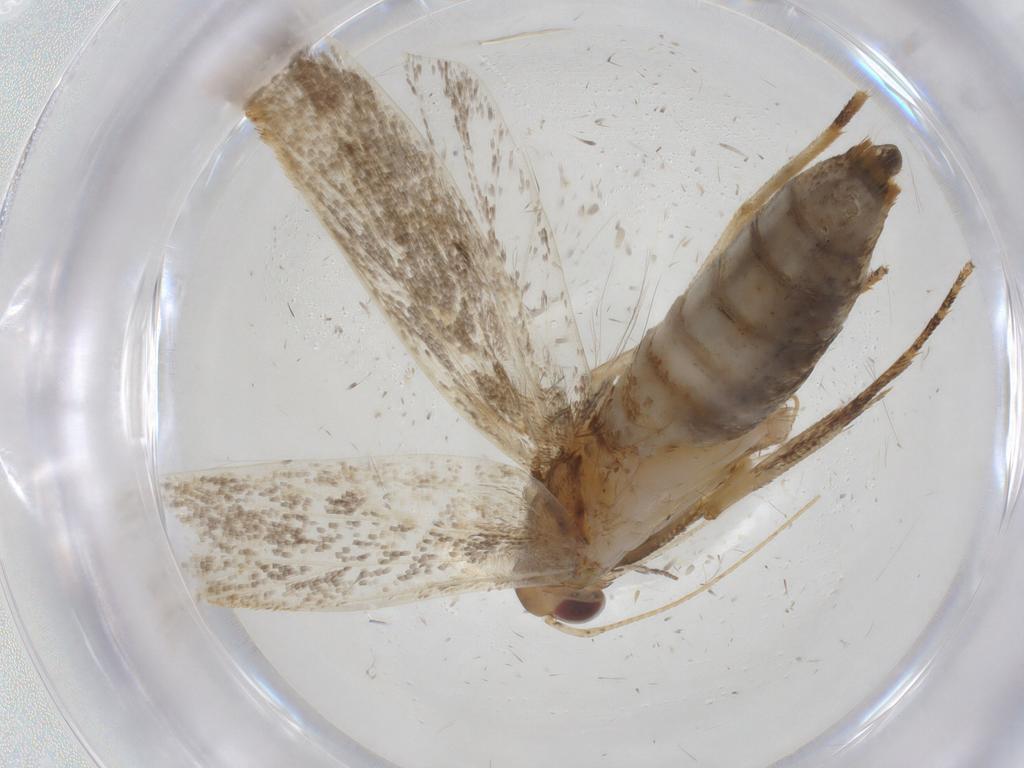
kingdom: Animalia
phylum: Arthropoda
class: Insecta
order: Lepidoptera
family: Gelechiidae
